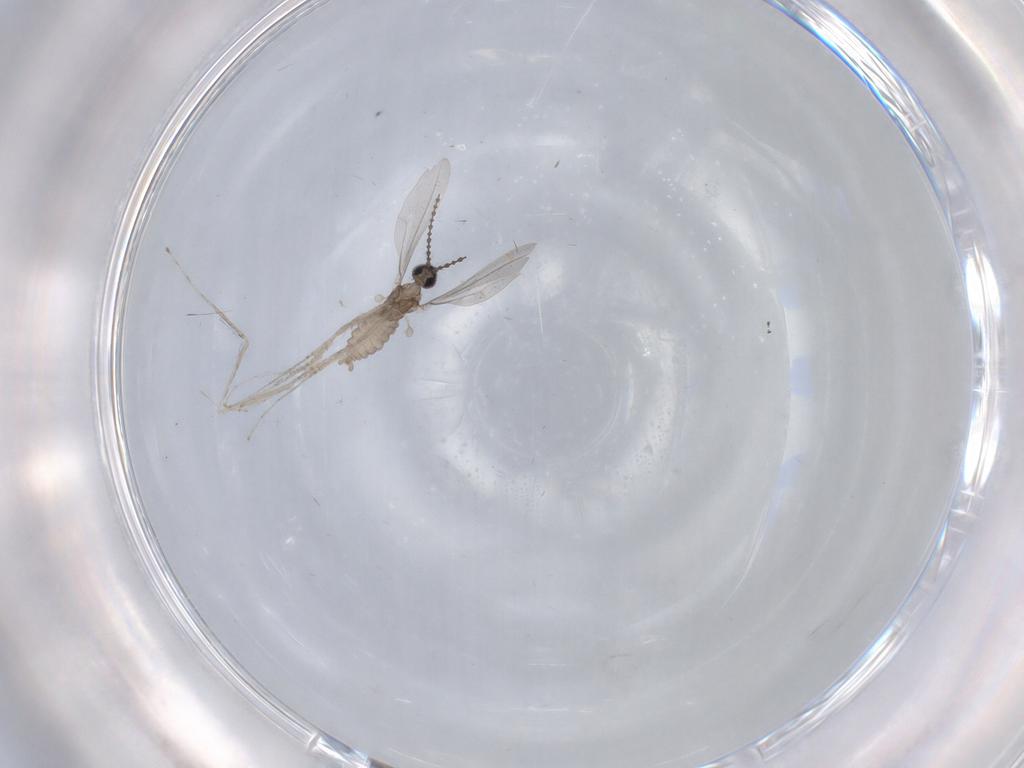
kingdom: Animalia
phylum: Arthropoda
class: Insecta
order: Diptera
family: Cecidomyiidae
